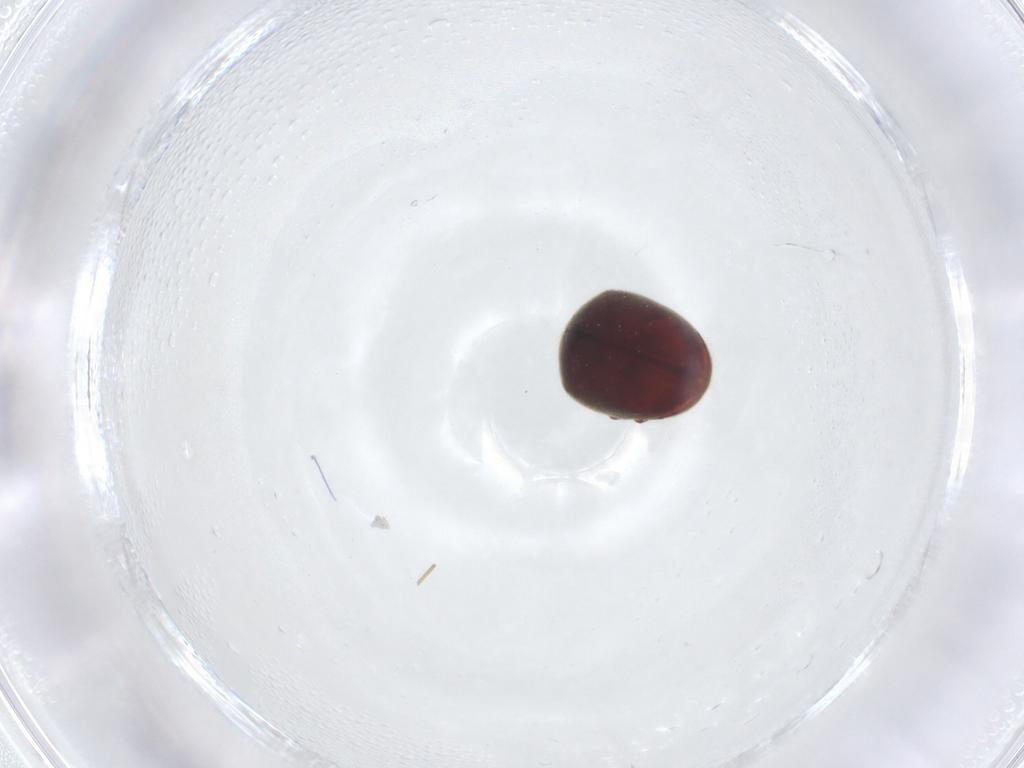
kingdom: Animalia
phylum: Arthropoda
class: Insecta
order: Coleoptera
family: Ptinidae
